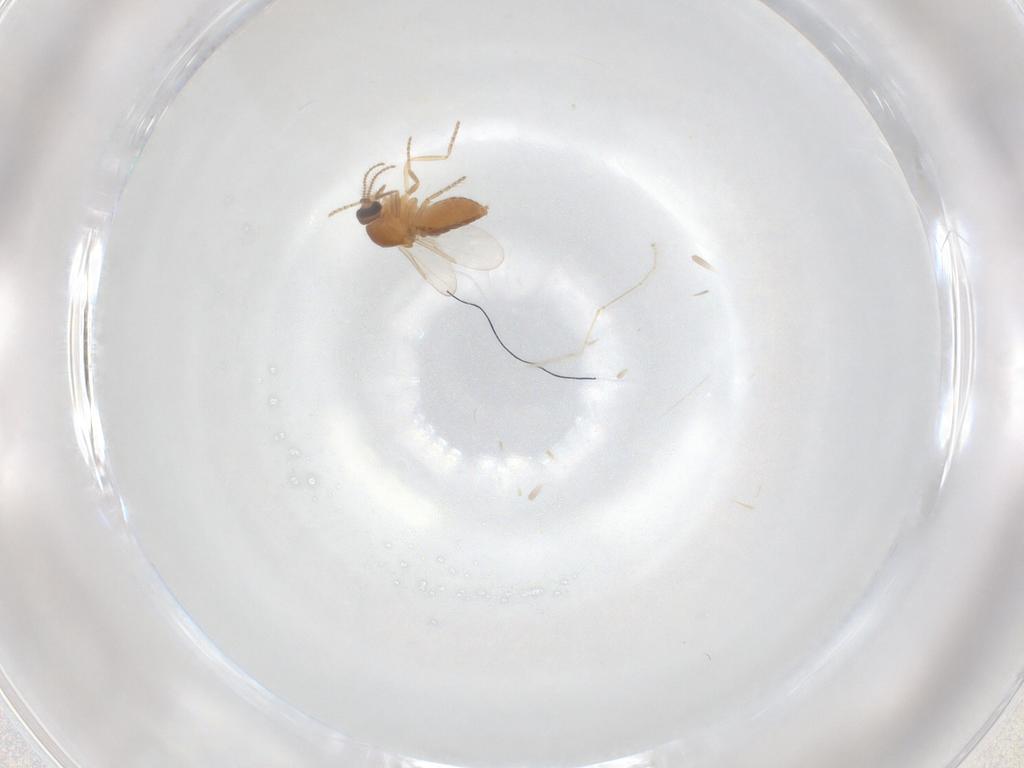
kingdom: Animalia
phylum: Arthropoda
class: Insecta
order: Diptera
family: Ceratopogonidae
